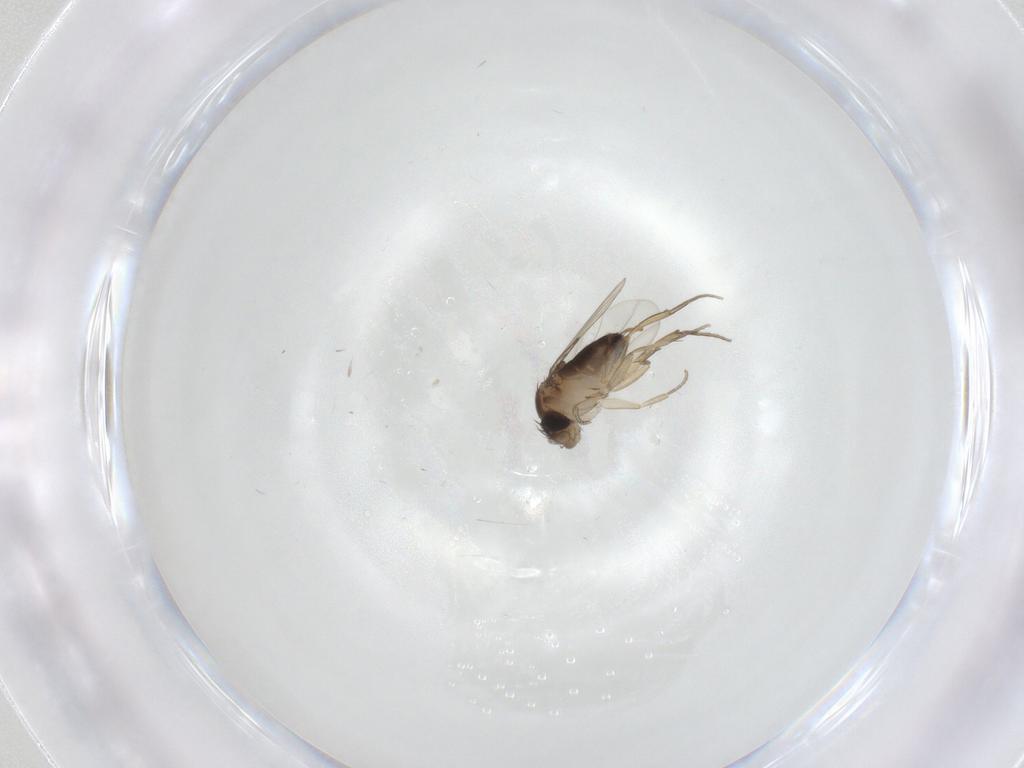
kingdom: Animalia
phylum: Arthropoda
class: Insecta
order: Diptera
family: Phoridae
